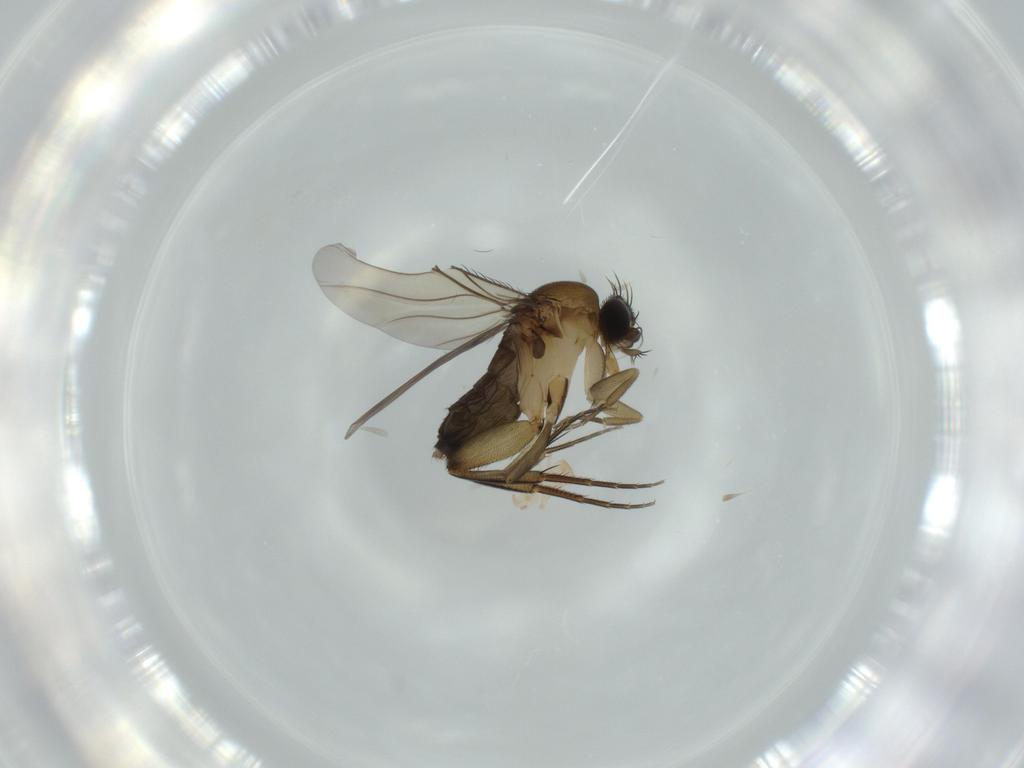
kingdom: Animalia
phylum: Arthropoda
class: Insecta
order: Diptera
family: Phoridae
